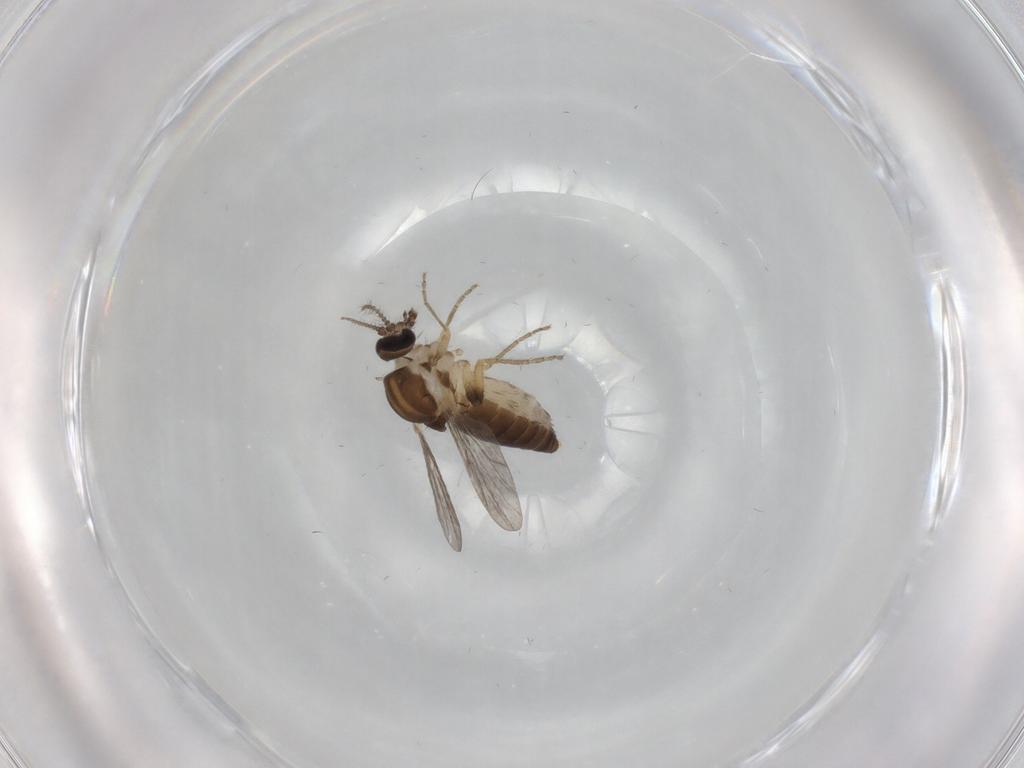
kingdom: Animalia
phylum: Arthropoda
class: Insecta
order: Diptera
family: Ceratopogonidae
